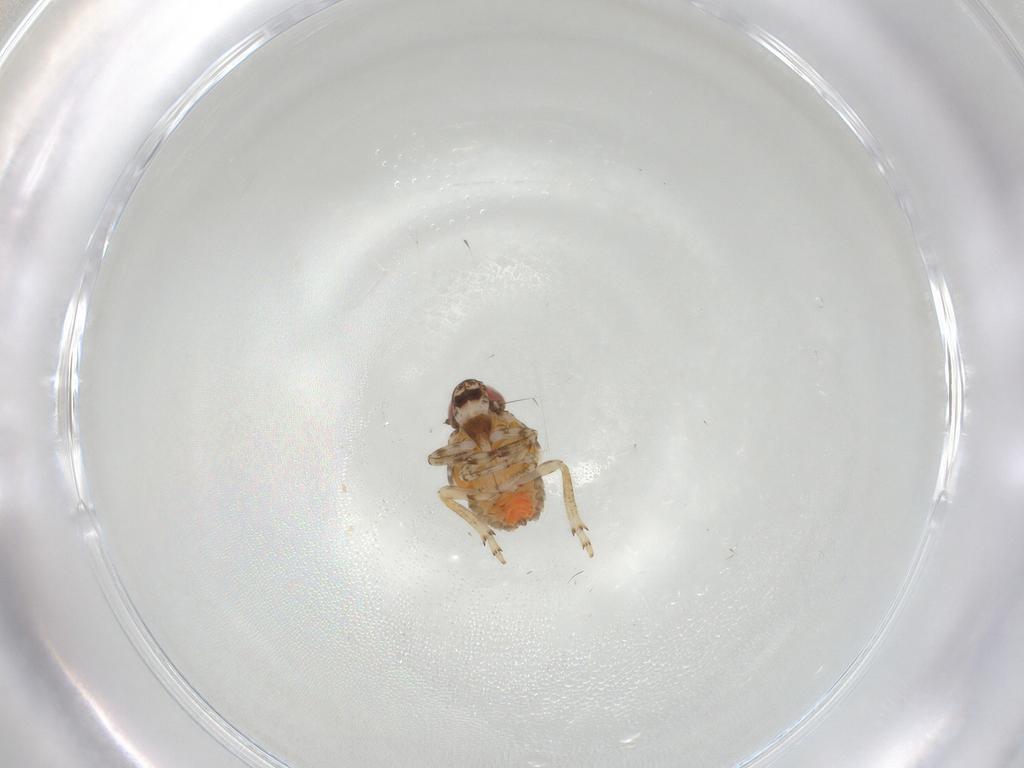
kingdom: Animalia
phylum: Arthropoda
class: Insecta
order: Hemiptera
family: Issidae
